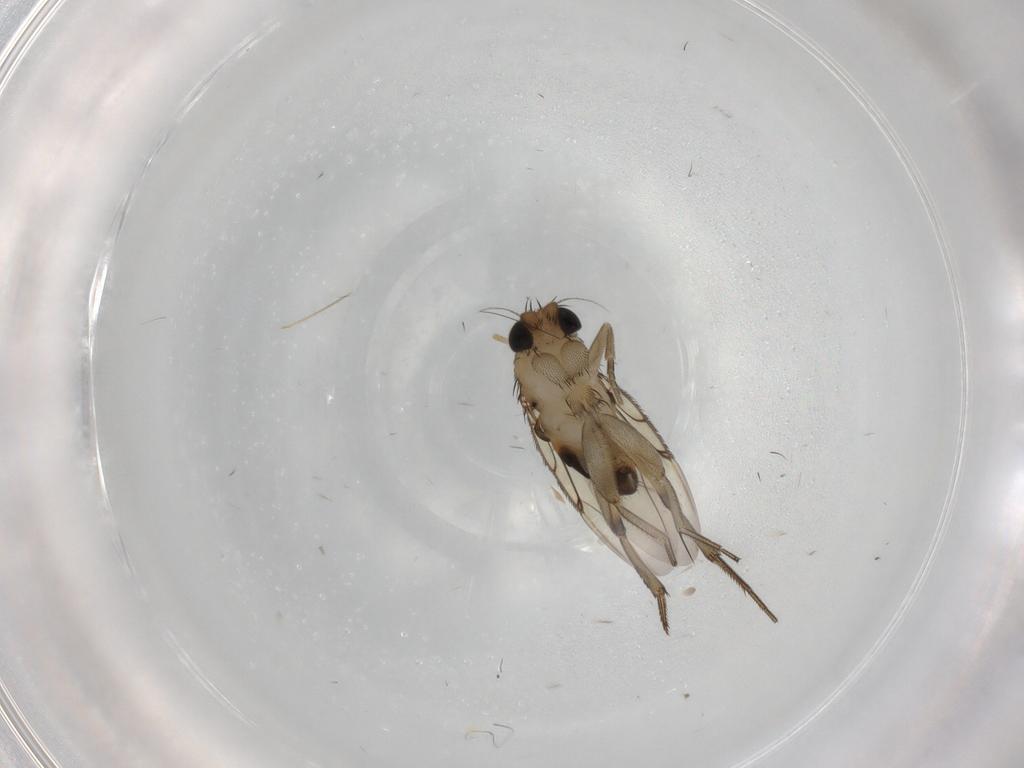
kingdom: Animalia
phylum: Arthropoda
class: Insecta
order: Diptera
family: Phoridae
